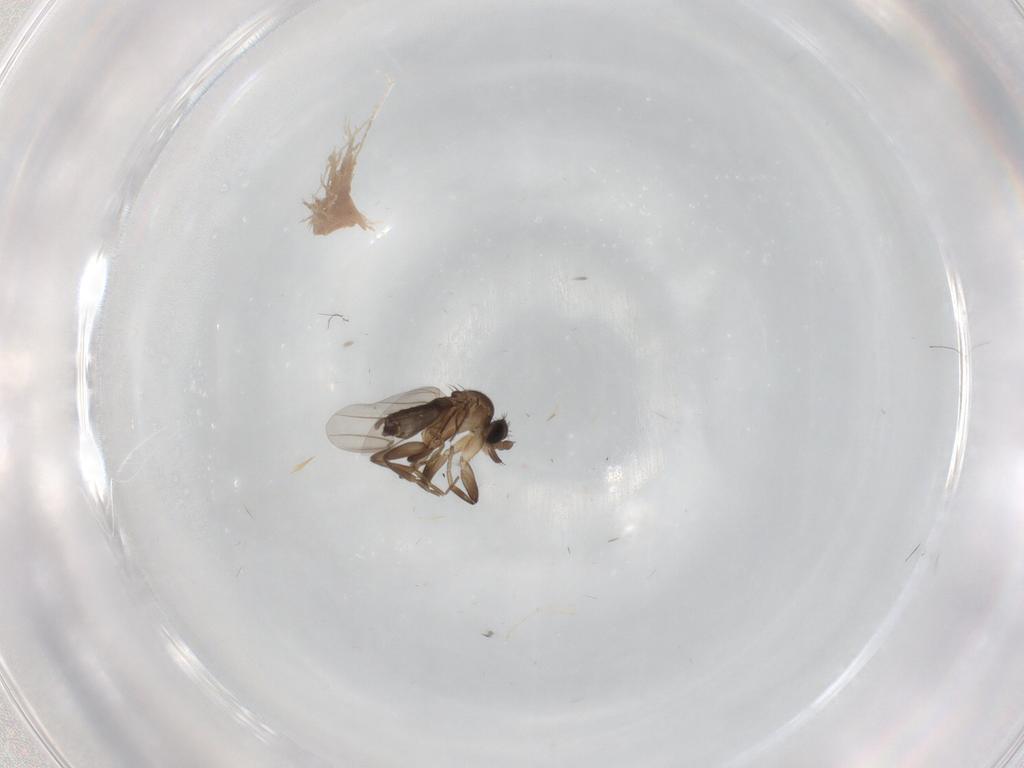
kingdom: Animalia
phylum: Arthropoda
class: Insecta
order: Diptera
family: Phoridae
